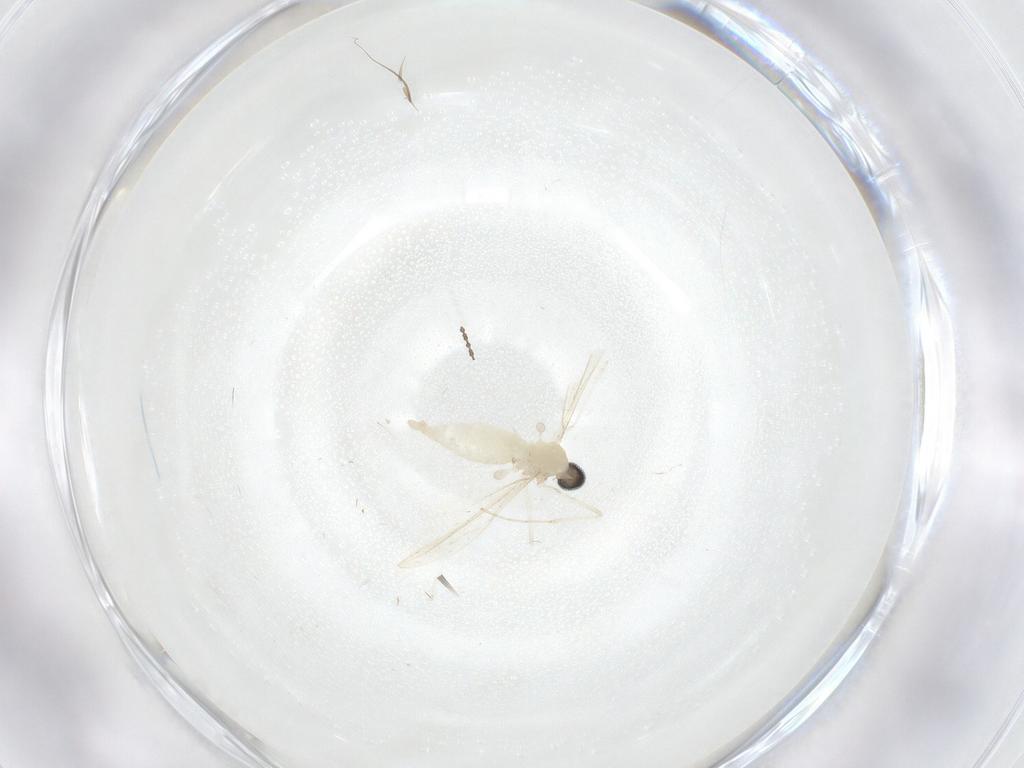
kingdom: Animalia
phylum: Arthropoda
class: Insecta
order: Diptera
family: Cecidomyiidae
